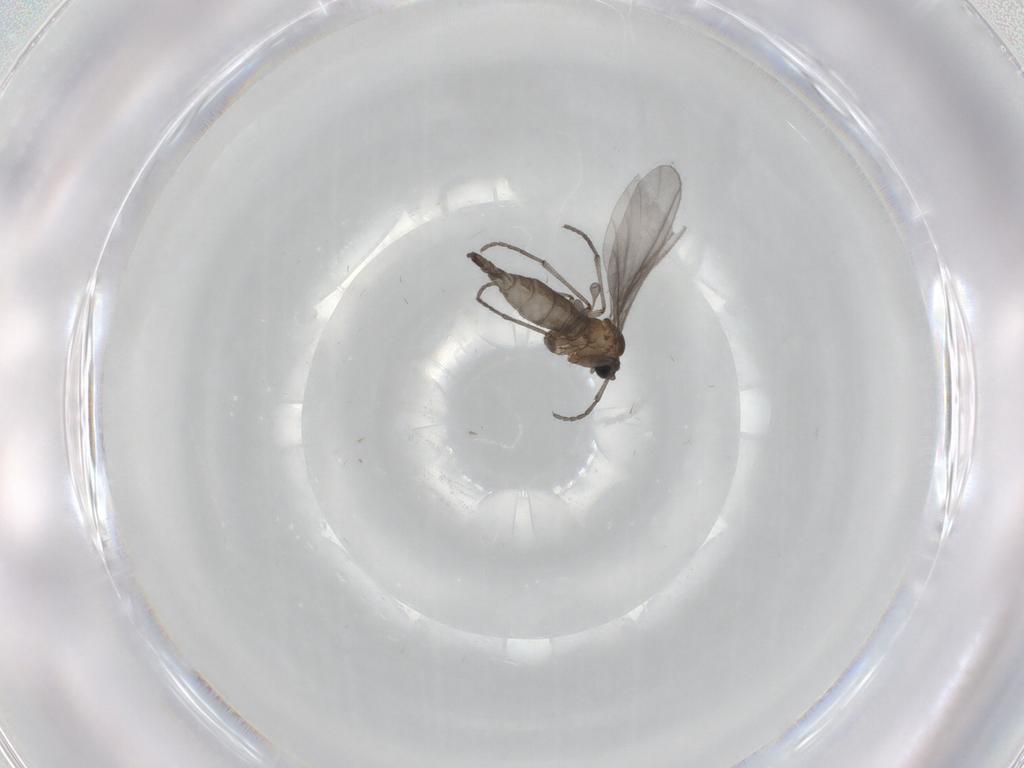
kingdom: Animalia
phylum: Arthropoda
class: Insecta
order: Diptera
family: Sciaridae
